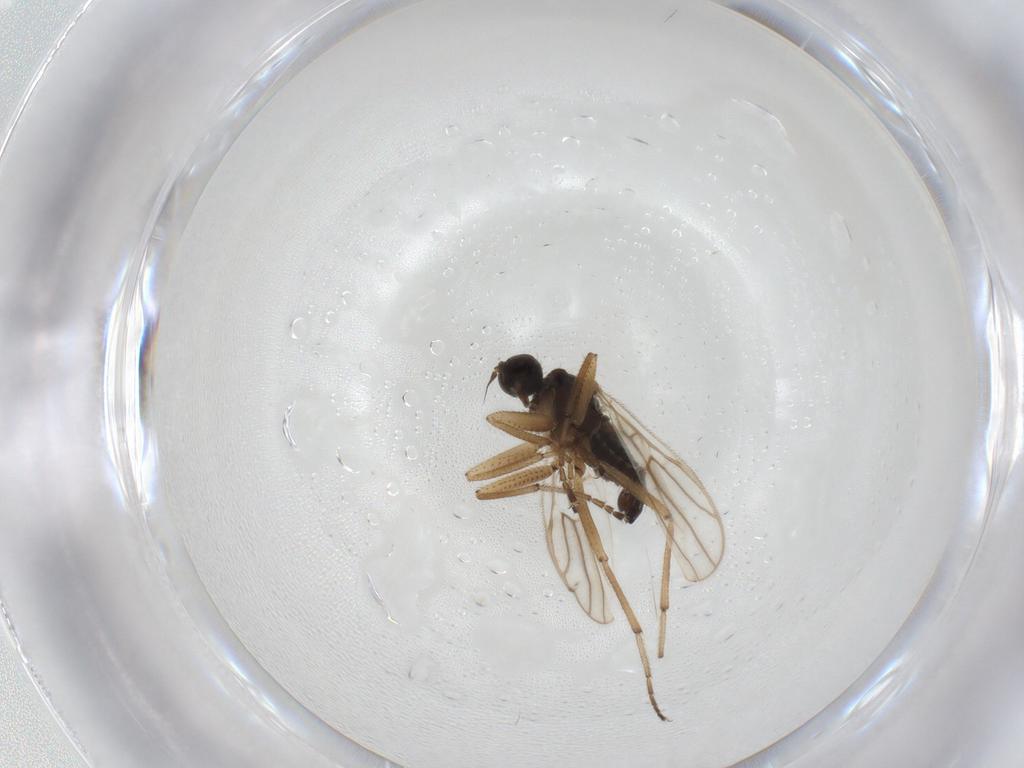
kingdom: Animalia
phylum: Arthropoda
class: Insecta
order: Diptera
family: Hybotidae
